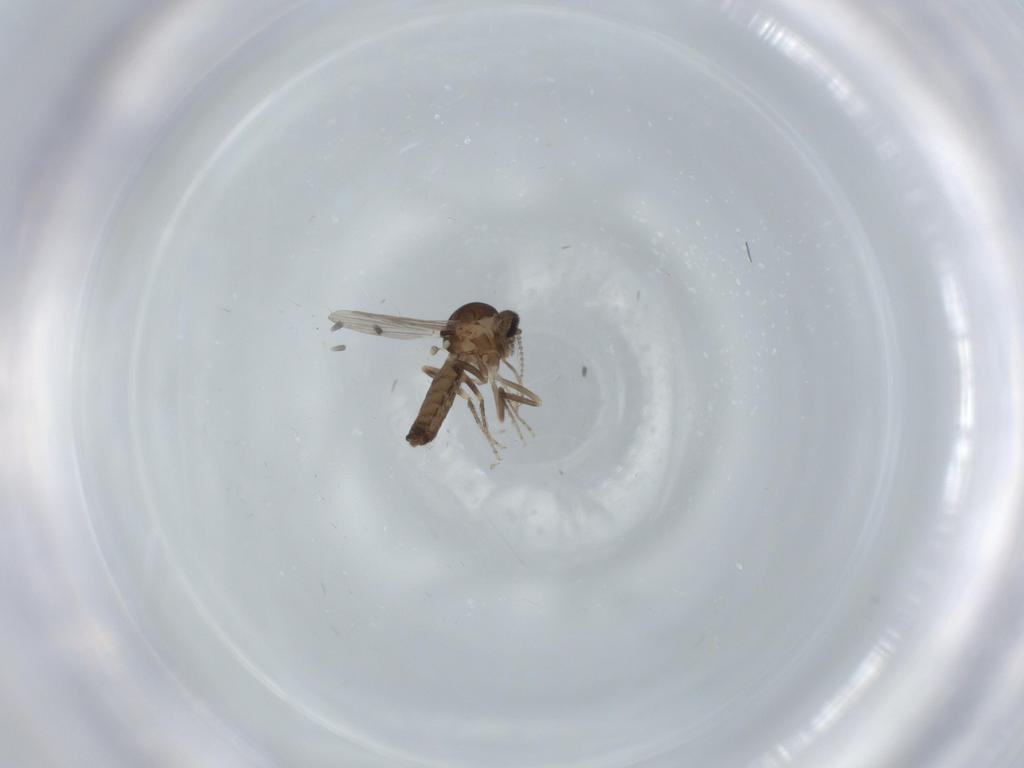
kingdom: Animalia
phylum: Arthropoda
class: Insecta
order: Diptera
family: Ceratopogonidae
